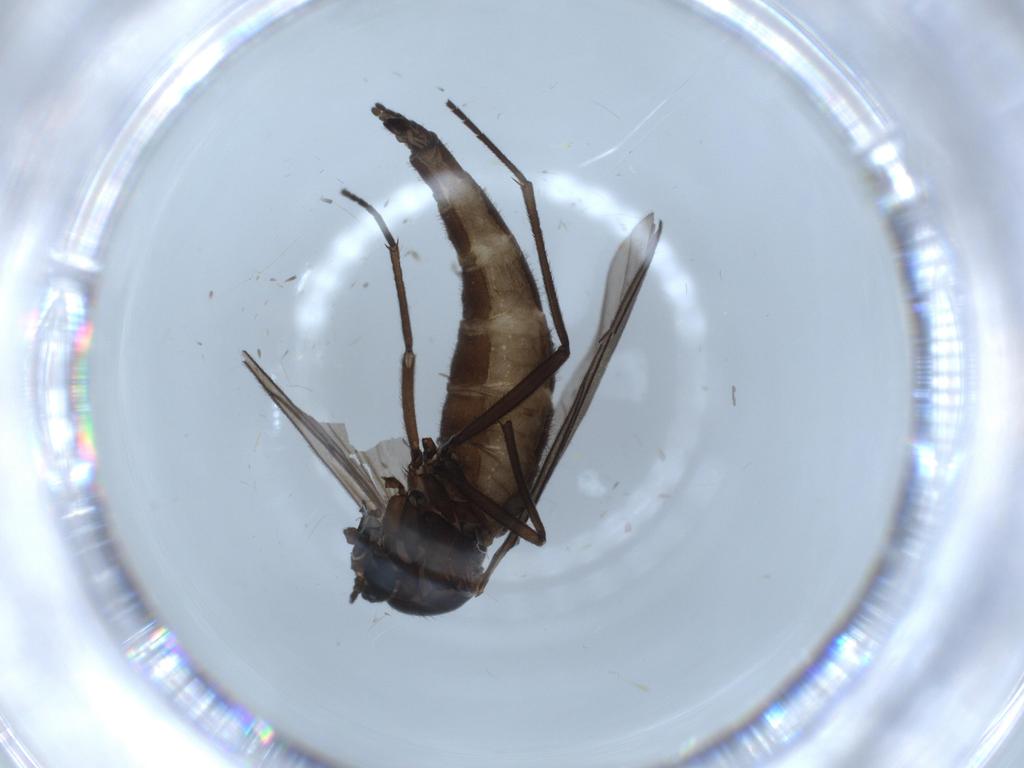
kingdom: Animalia
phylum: Arthropoda
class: Insecta
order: Diptera
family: Sciaridae
